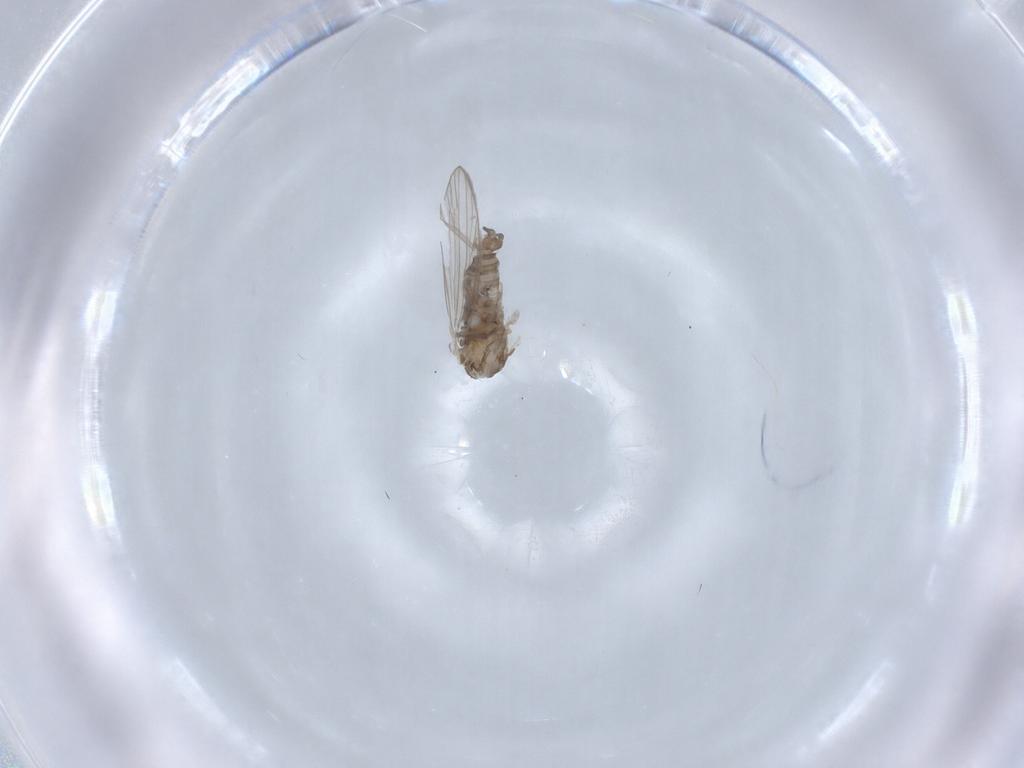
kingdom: Animalia
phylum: Arthropoda
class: Insecta
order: Diptera
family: Psychodidae
